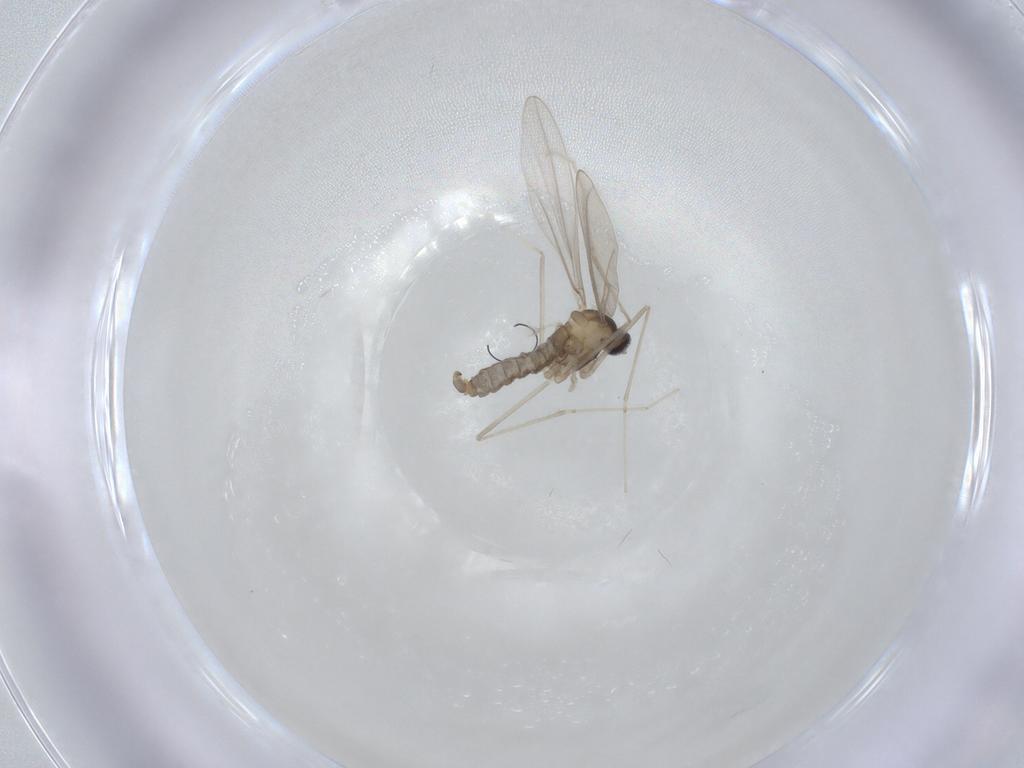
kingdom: Animalia
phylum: Arthropoda
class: Insecta
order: Diptera
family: Cecidomyiidae
